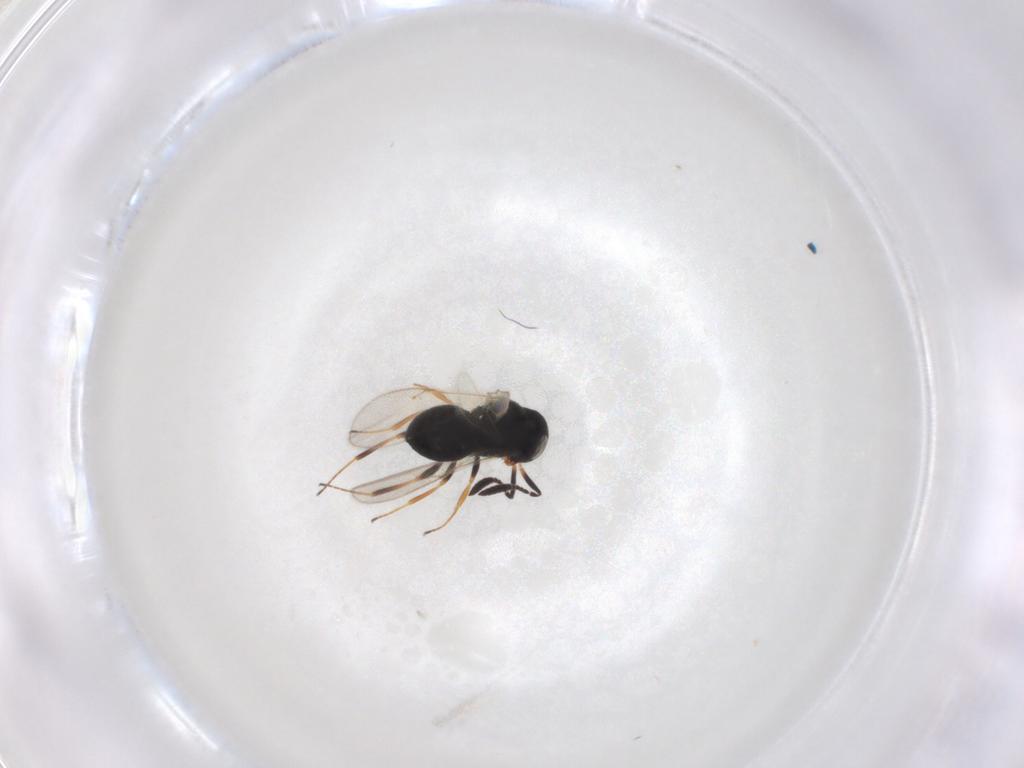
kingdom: Animalia
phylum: Arthropoda
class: Insecta
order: Hymenoptera
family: Scelionidae
